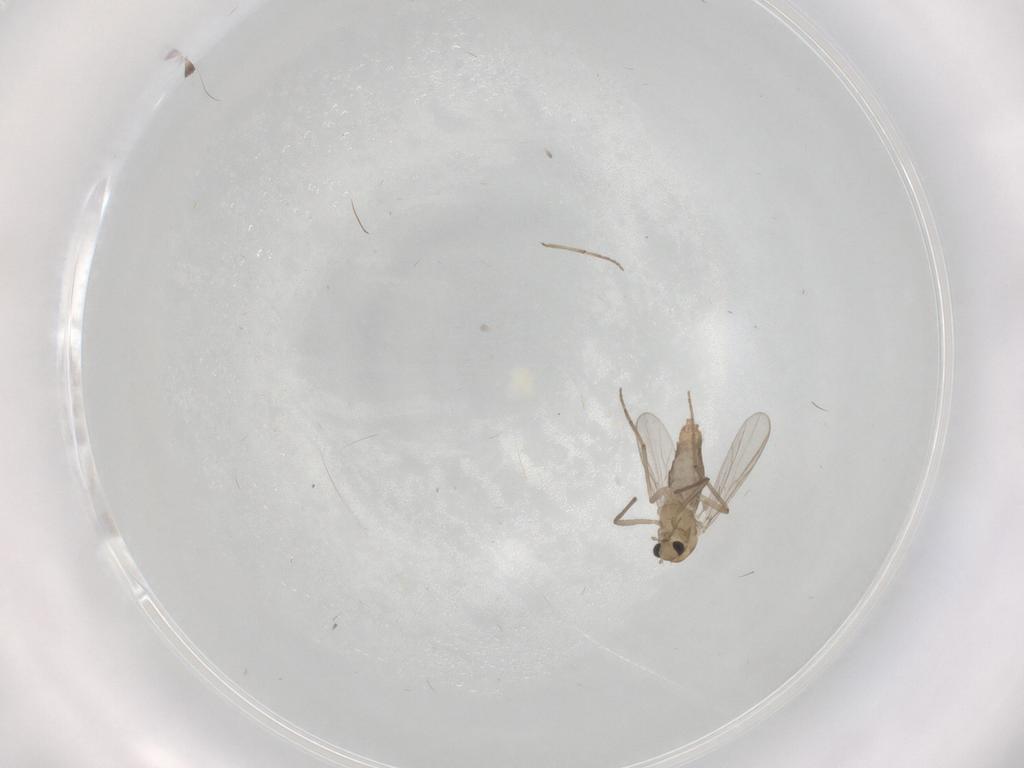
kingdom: Animalia
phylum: Arthropoda
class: Insecta
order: Diptera
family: Chironomidae
